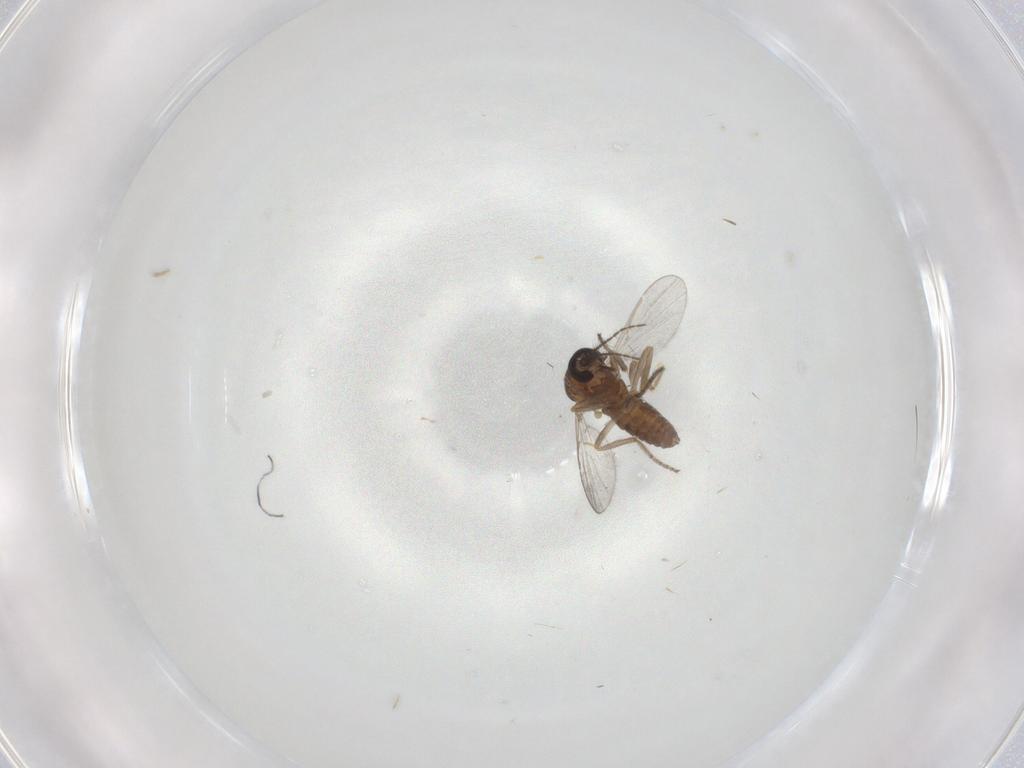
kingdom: Animalia
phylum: Arthropoda
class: Insecta
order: Diptera
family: Ceratopogonidae
